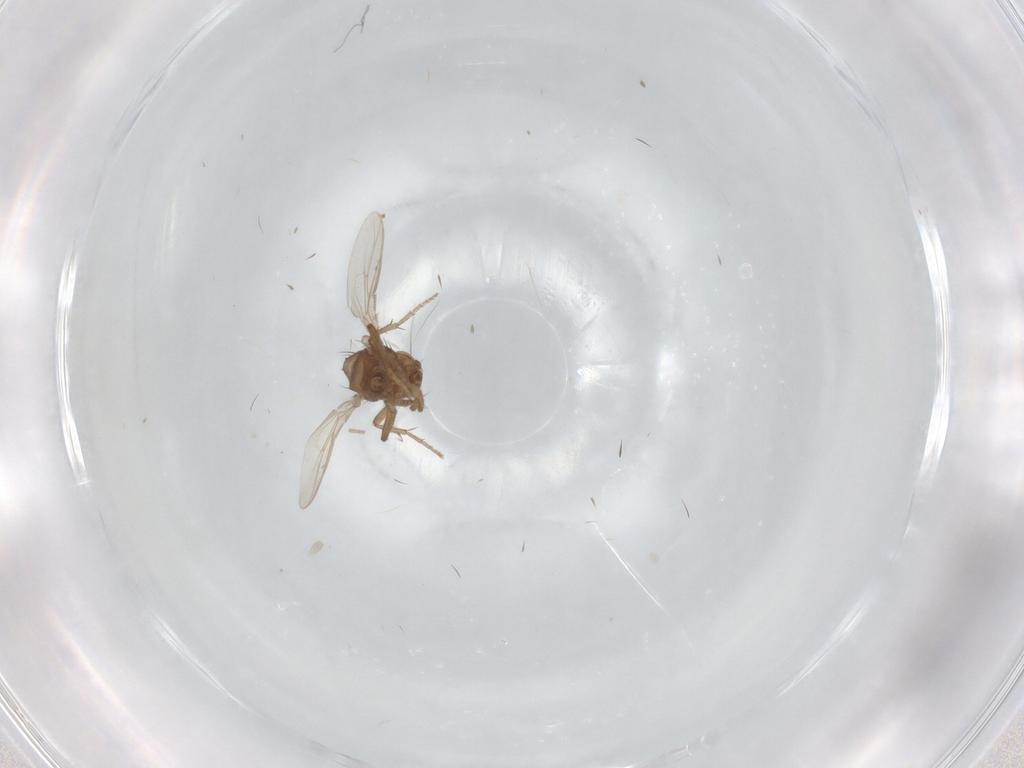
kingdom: Animalia
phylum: Arthropoda
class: Insecta
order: Diptera
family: Sphaeroceridae
